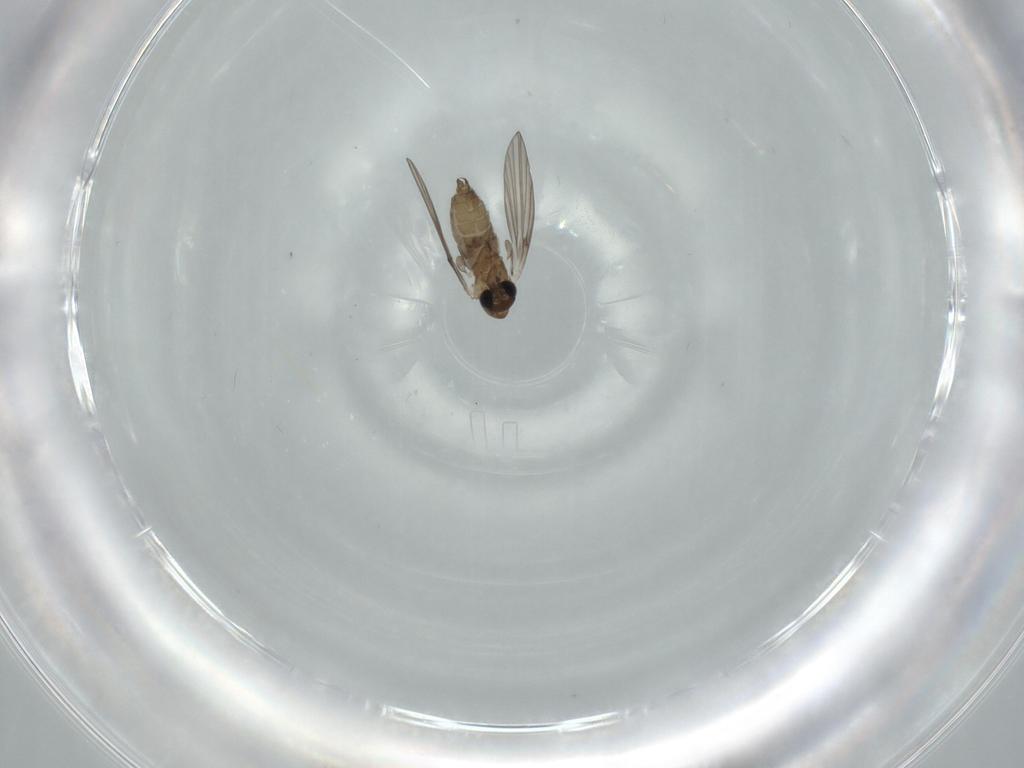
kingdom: Animalia
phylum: Arthropoda
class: Insecta
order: Diptera
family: Psychodidae
